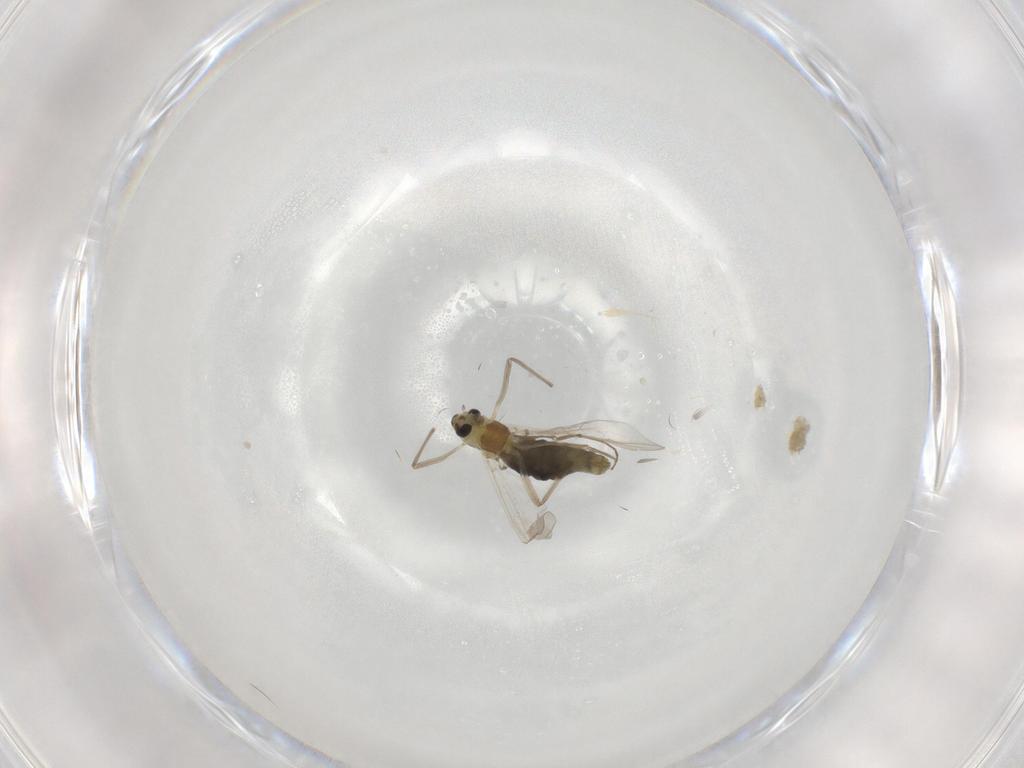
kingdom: Animalia
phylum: Arthropoda
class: Insecta
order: Diptera
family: Chironomidae
